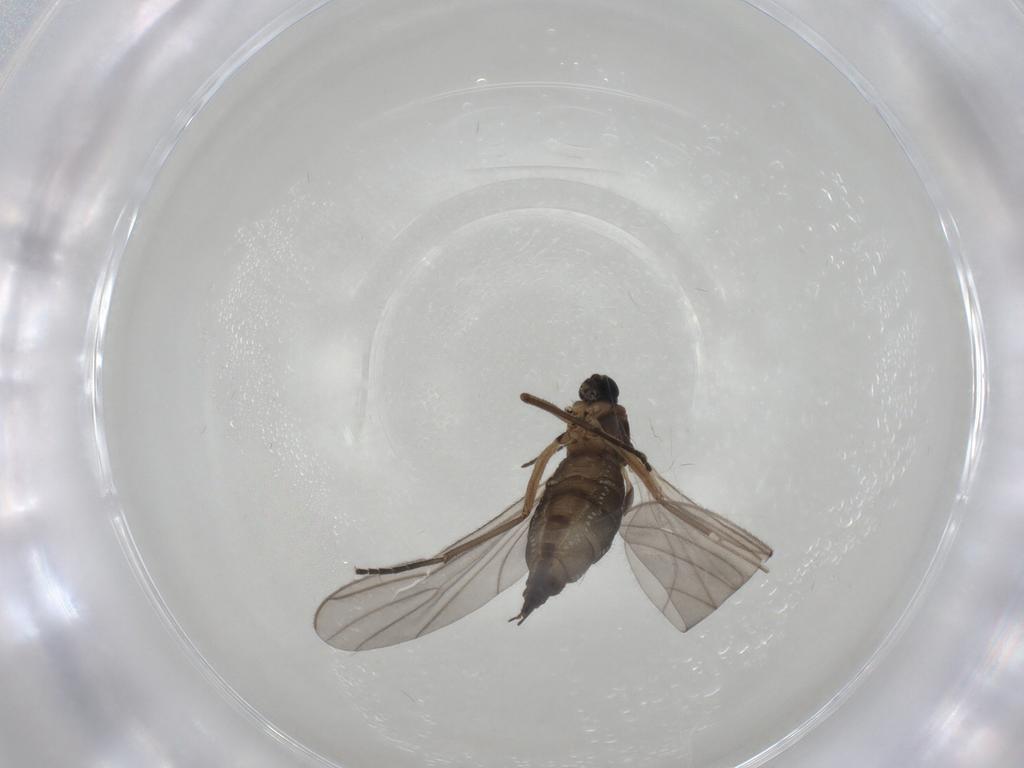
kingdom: Animalia
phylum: Arthropoda
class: Insecta
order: Diptera
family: Sciaridae
